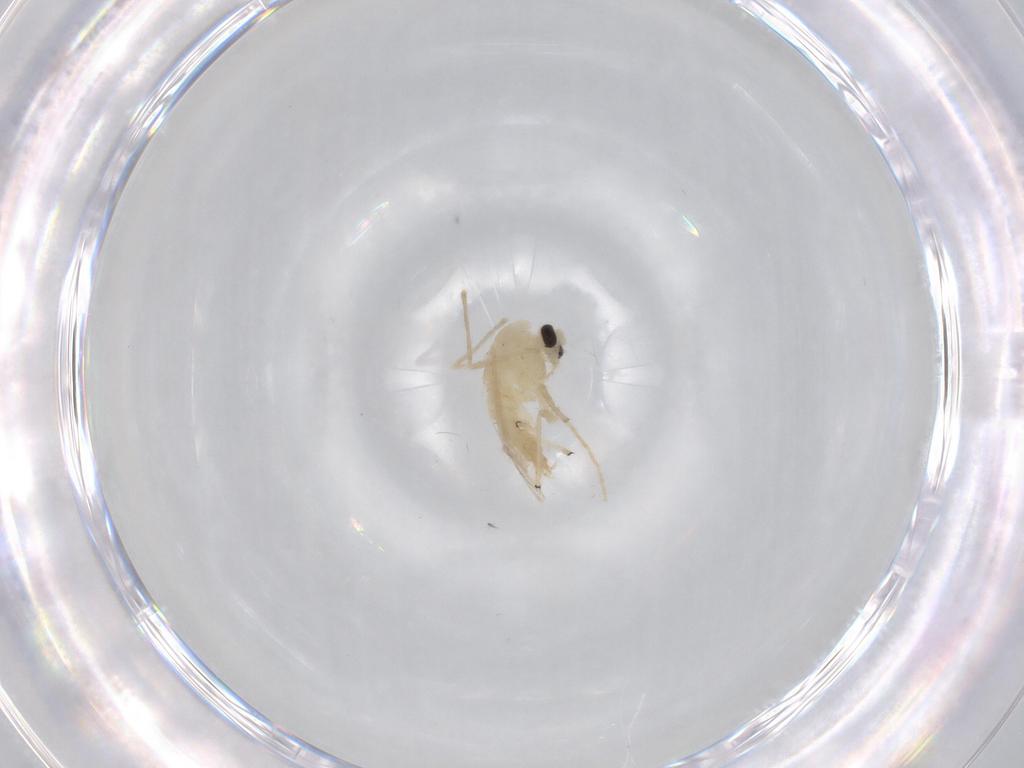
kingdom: Animalia
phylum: Arthropoda
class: Insecta
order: Diptera
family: Chironomidae
